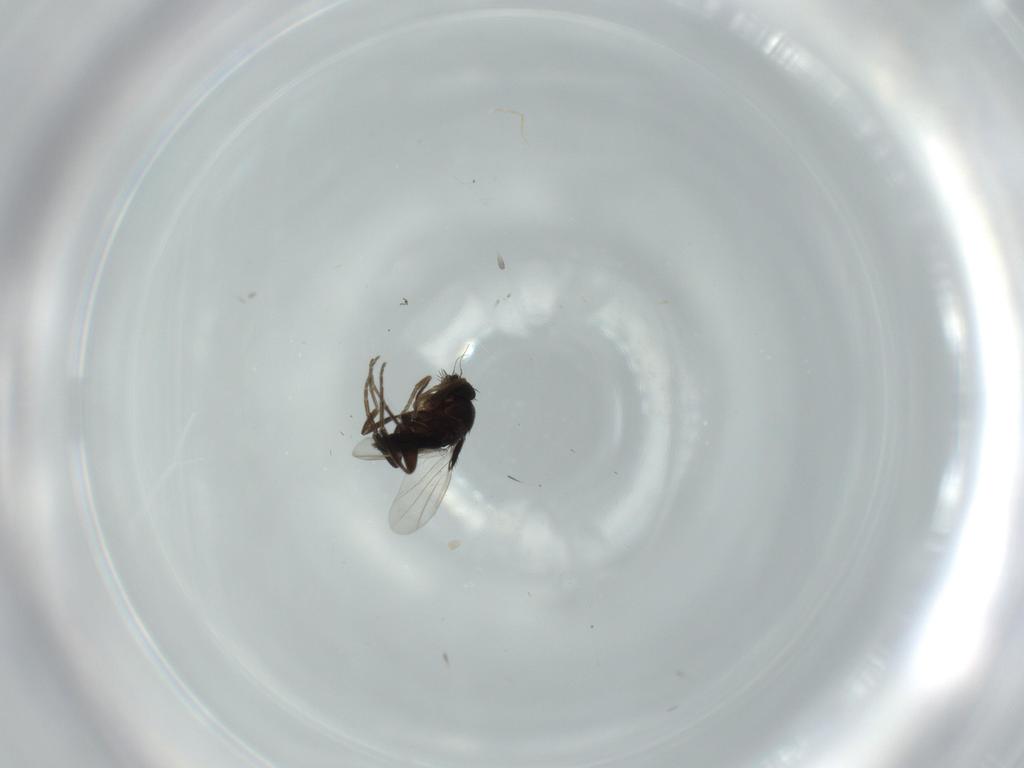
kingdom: Animalia
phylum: Arthropoda
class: Insecta
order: Diptera
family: Phoridae
